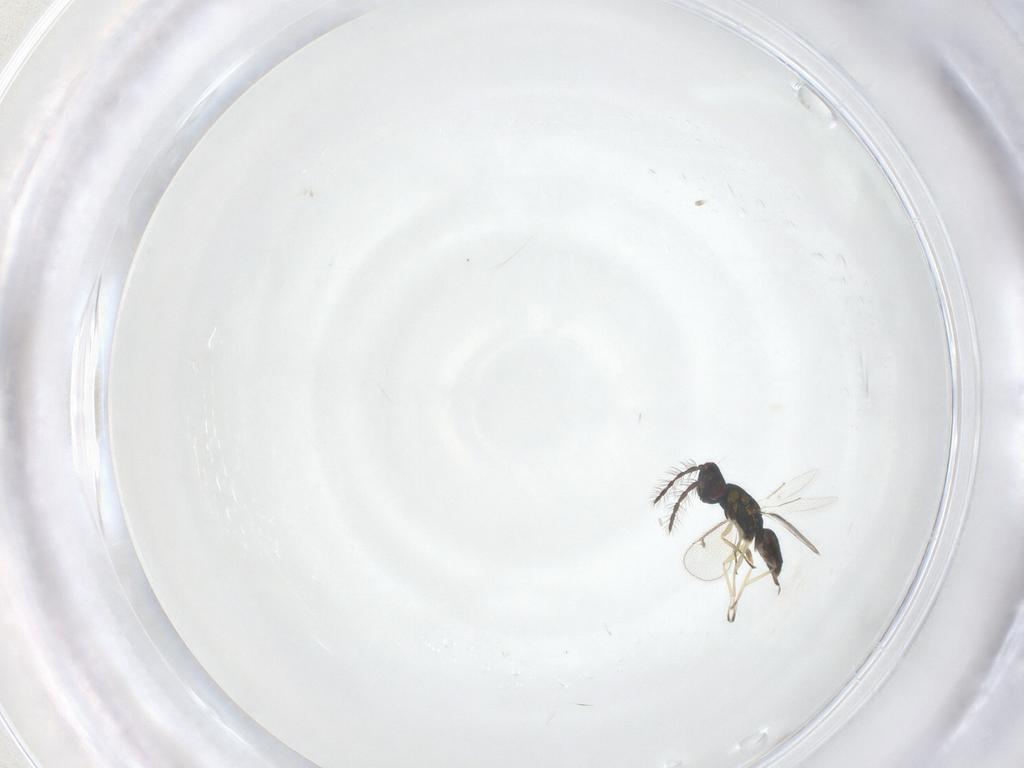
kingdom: Animalia
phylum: Arthropoda
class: Insecta
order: Hymenoptera
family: Eulophidae
